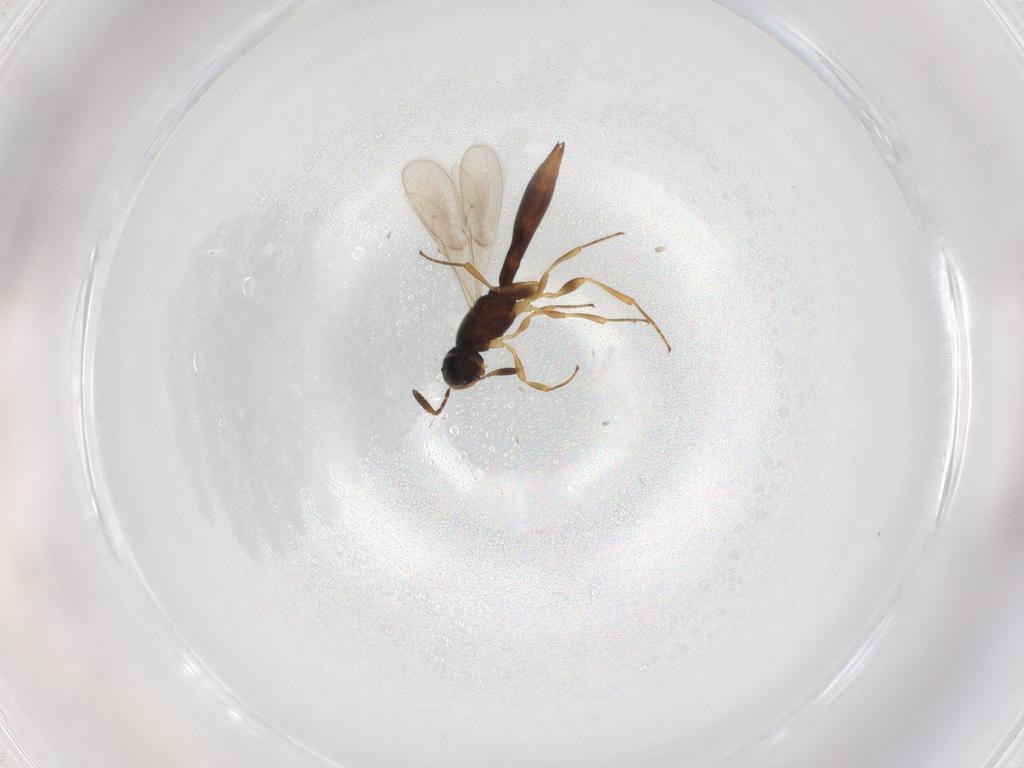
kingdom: Animalia
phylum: Arthropoda
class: Insecta
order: Hymenoptera
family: Scelionidae
